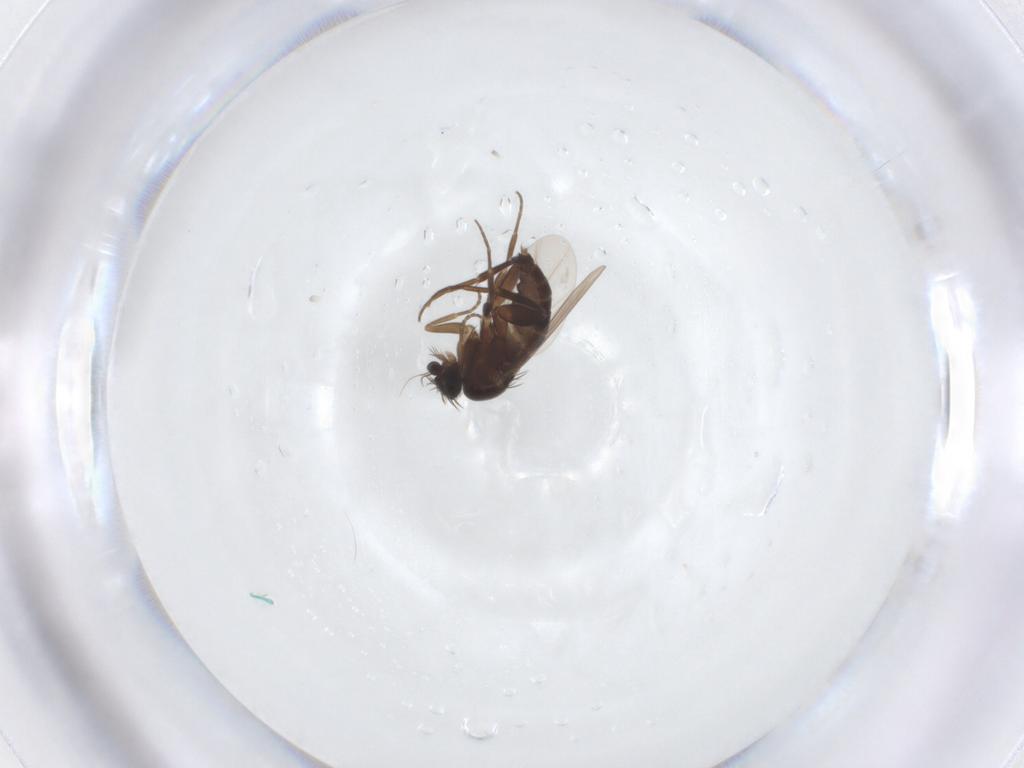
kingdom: Animalia
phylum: Arthropoda
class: Insecta
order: Diptera
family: Phoridae
